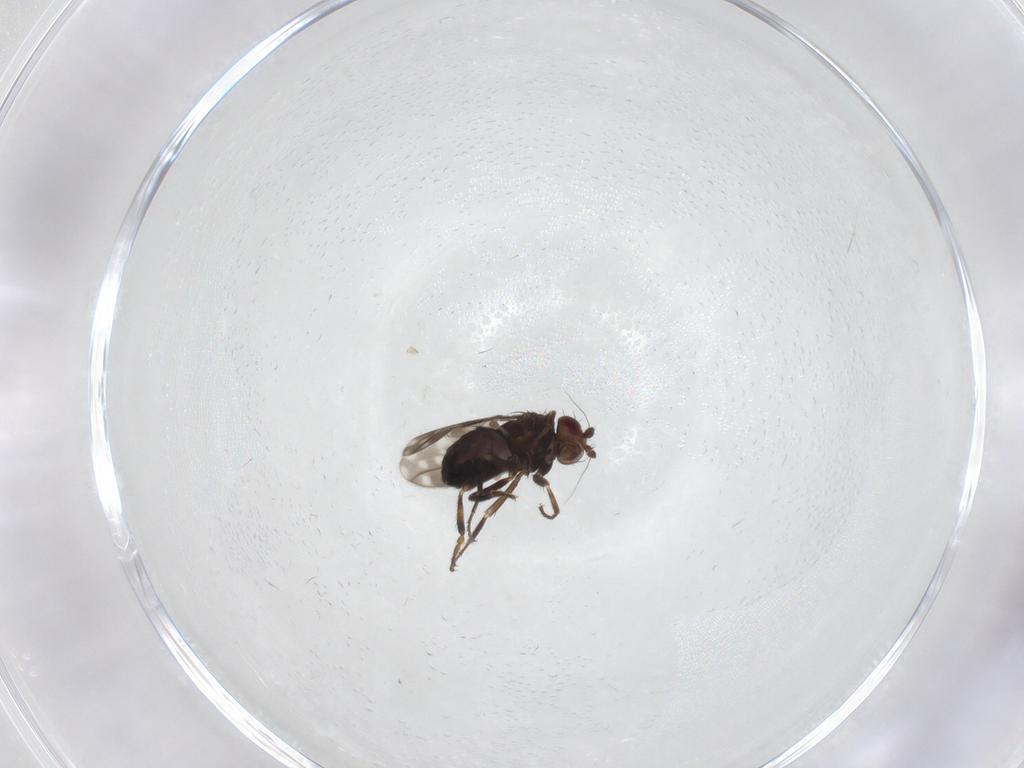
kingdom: Animalia
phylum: Arthropoda
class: Insecta
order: Diptera
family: Sphaeroceridae
